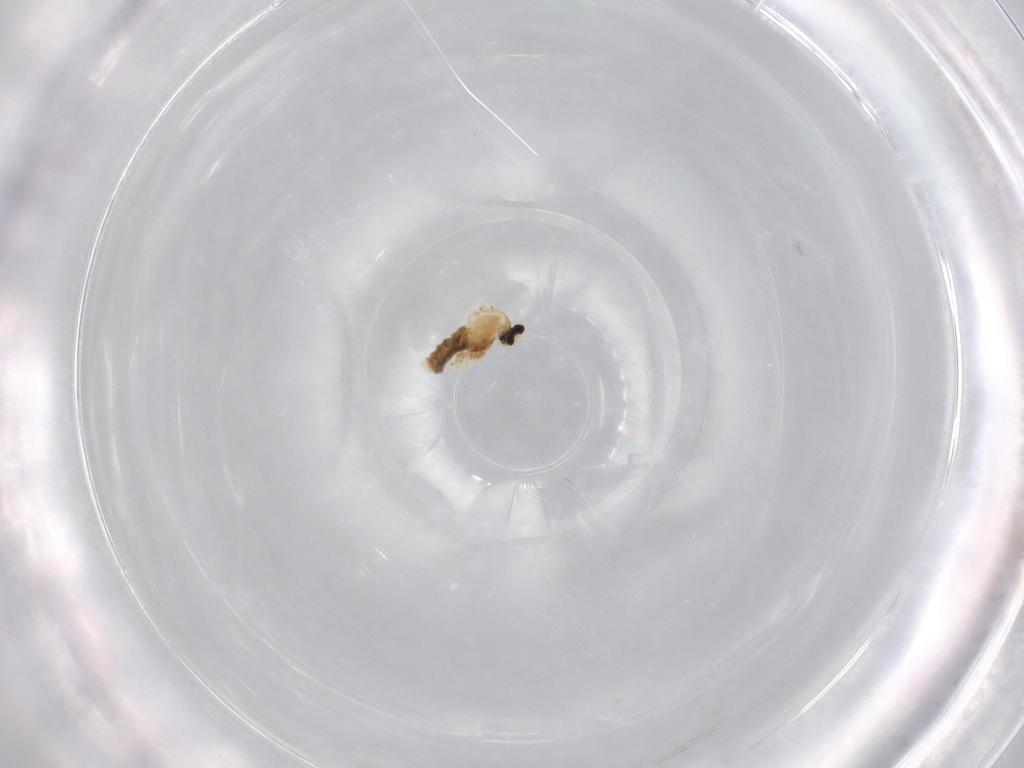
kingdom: Animalia
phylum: Arthropoda
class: Insecta
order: Diptera
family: Cecidomyiidae
